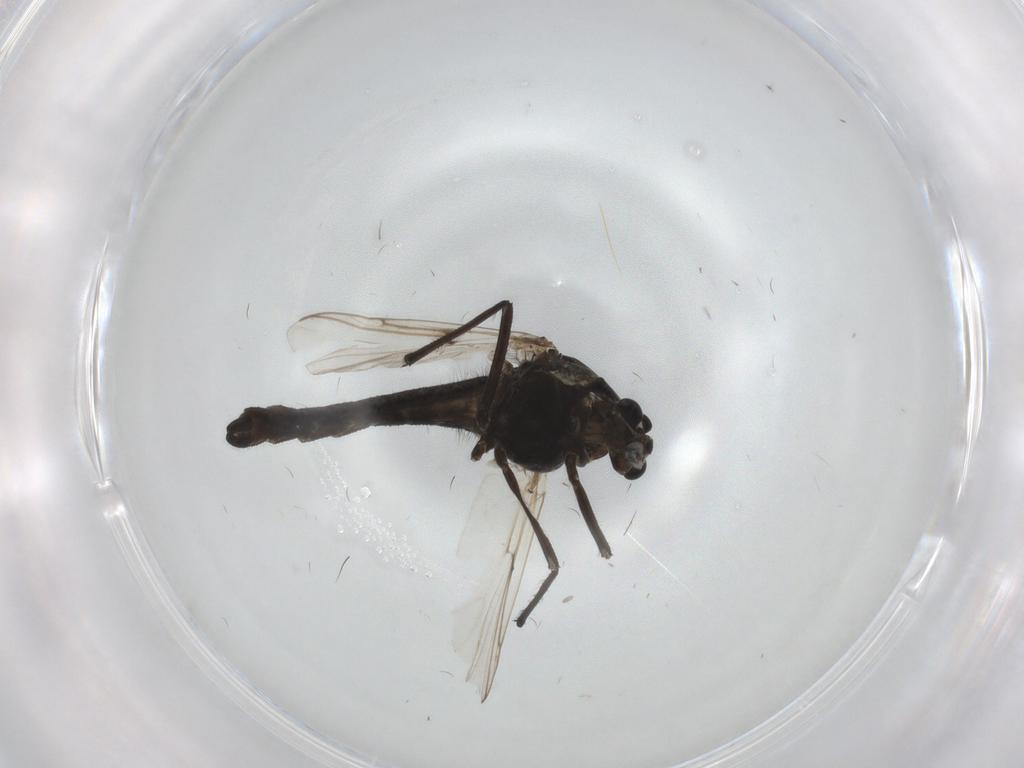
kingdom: Animalia
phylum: Arthropoda
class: Insecta
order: Diptera
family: Chironomidae
